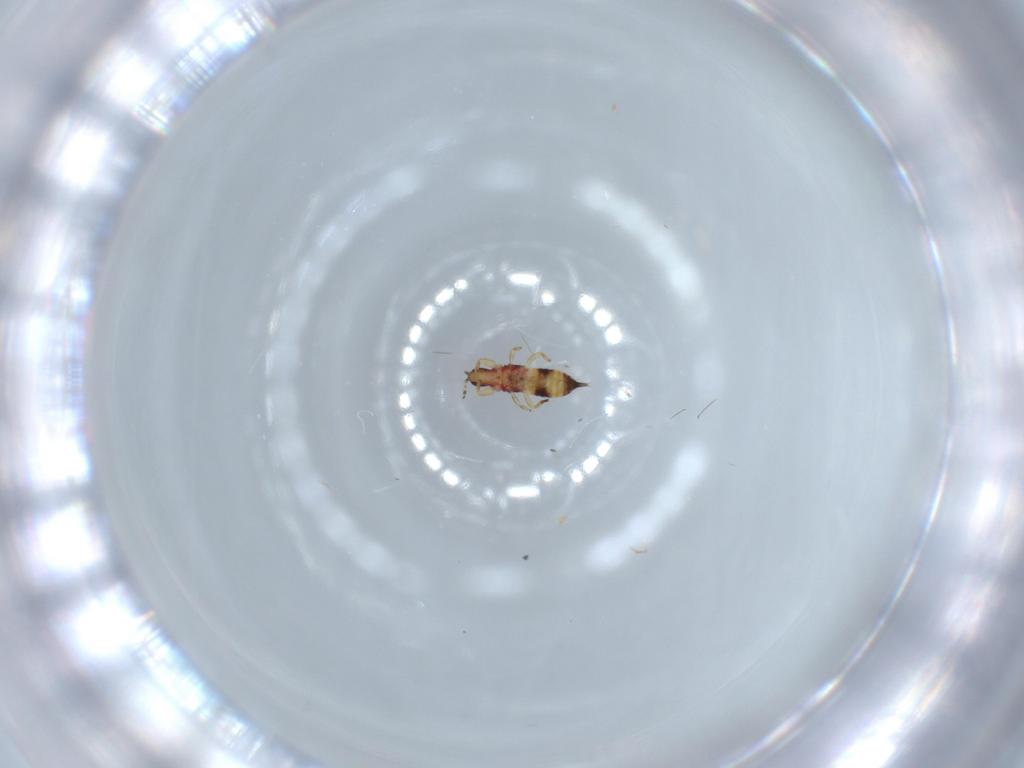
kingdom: Animalia
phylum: Arthropoda
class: Insecta
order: Thysanoptera
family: Phlaeothripidae
